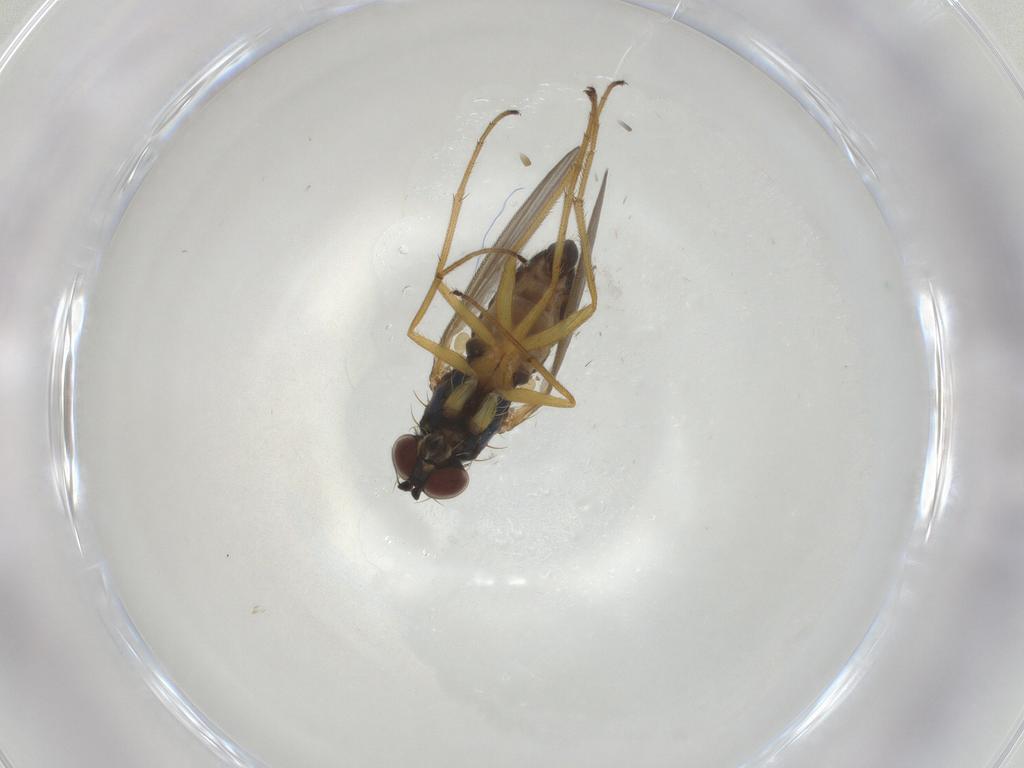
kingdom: Animalia
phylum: Arthropoda
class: Insecta
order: Diptera
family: Dolichopodidae
